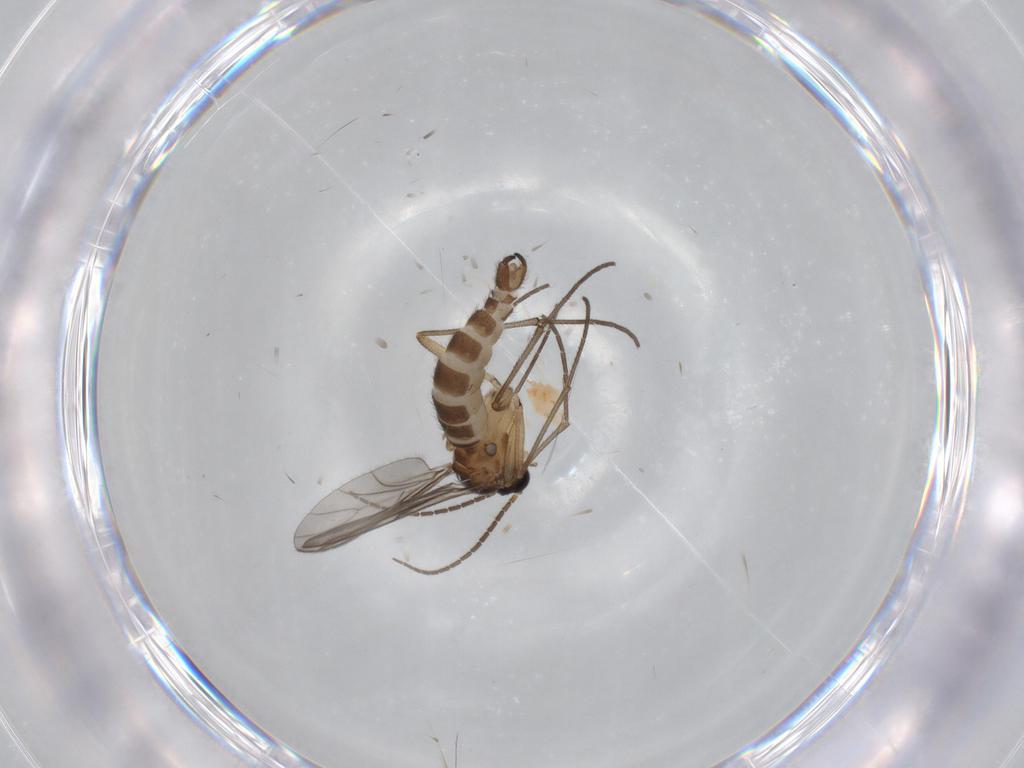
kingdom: Animalia
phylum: Arthropoda
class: Insecta
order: Diptera
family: Sciaridae
